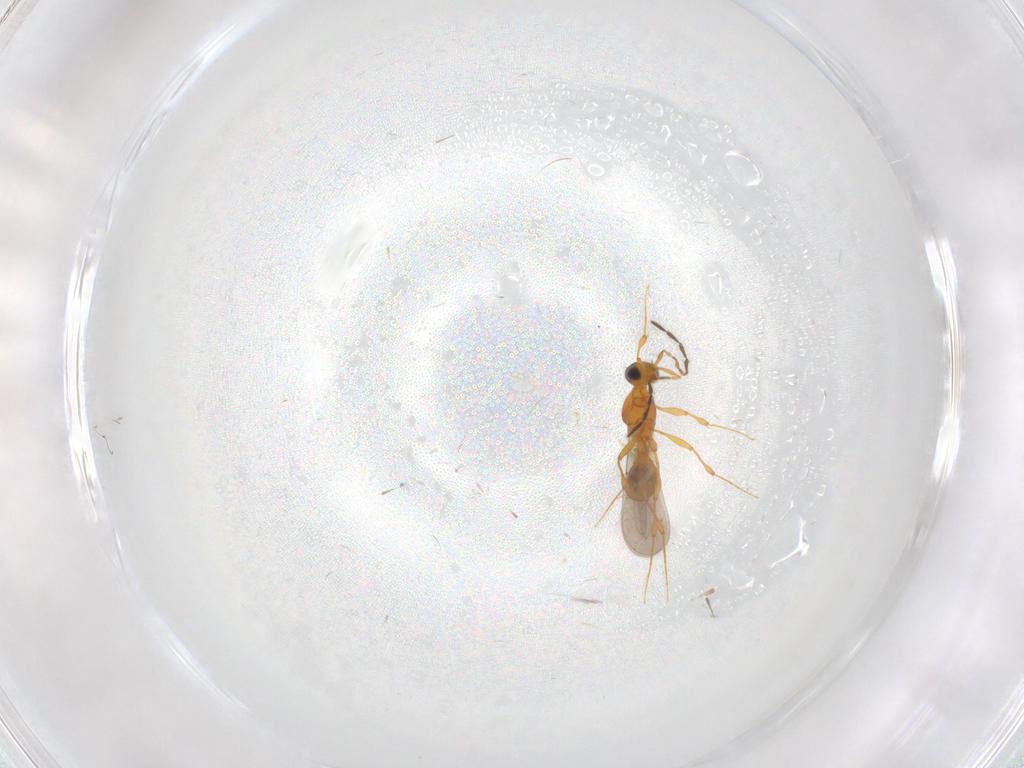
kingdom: Animalia
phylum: Arthropoda
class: Insecta
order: Hymenoptera
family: Platygastridae
